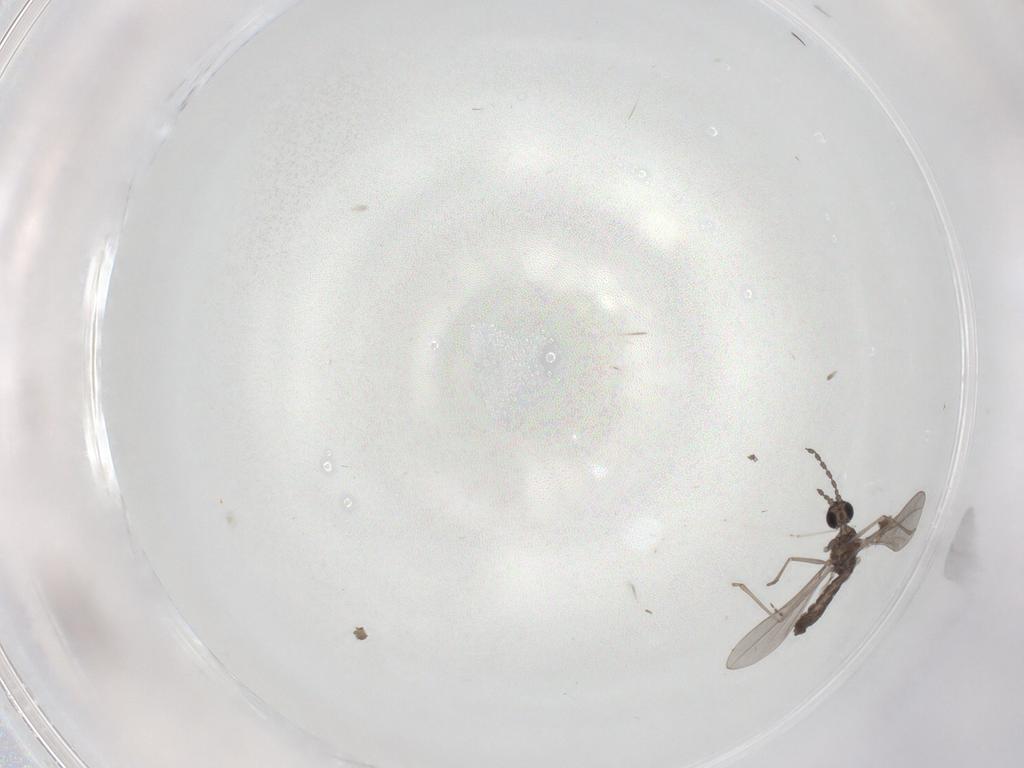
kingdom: Animalia
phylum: Arthropoda
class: Insecta
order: Diptera
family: Cecidomyiidae
